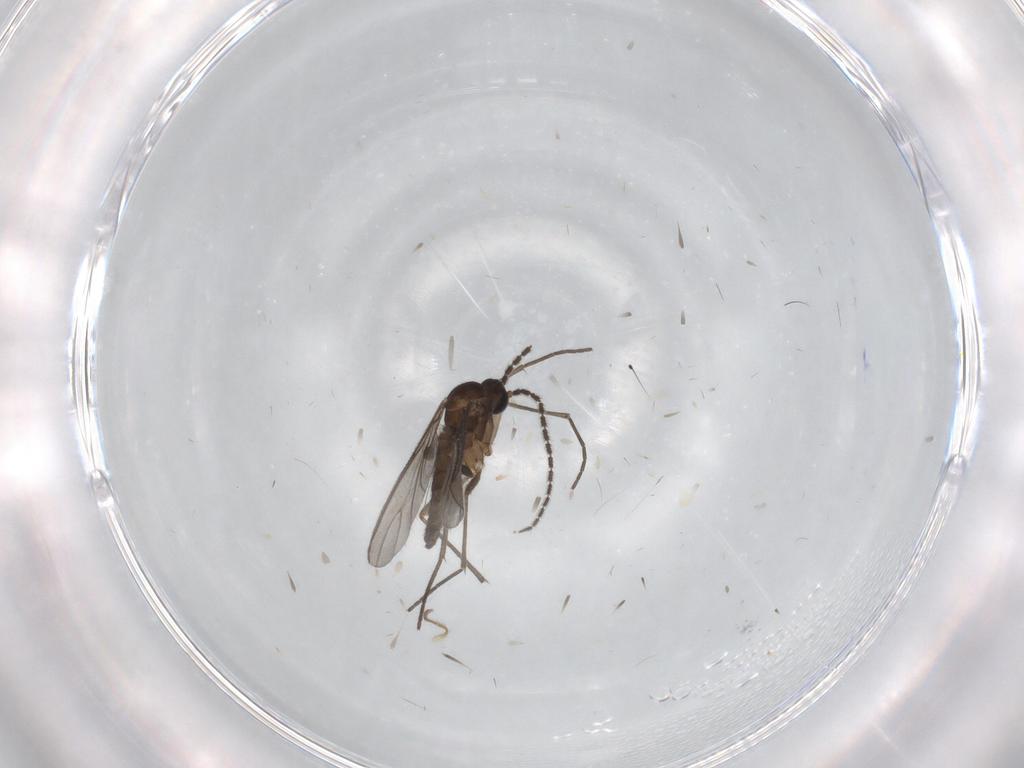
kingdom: Animalia
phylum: Arthropoda
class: Insecta
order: Diptera
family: Sciaridae
